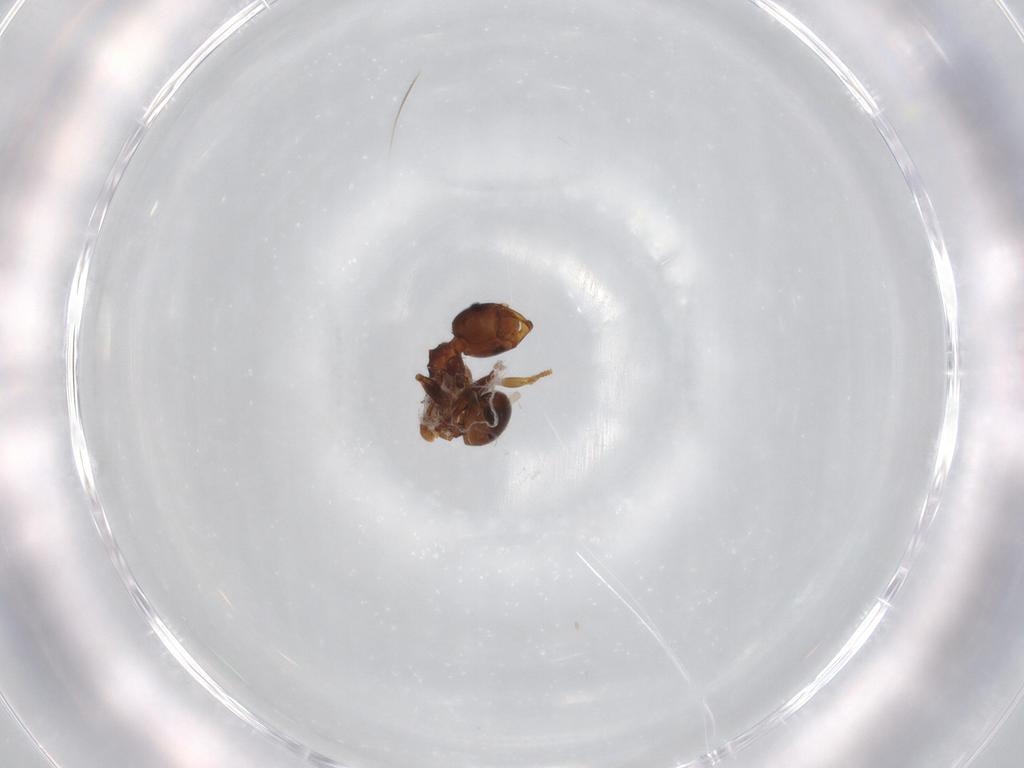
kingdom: Animalia
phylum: Arthropoda
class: Insecta
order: Hymenoptera
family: Formicidae
